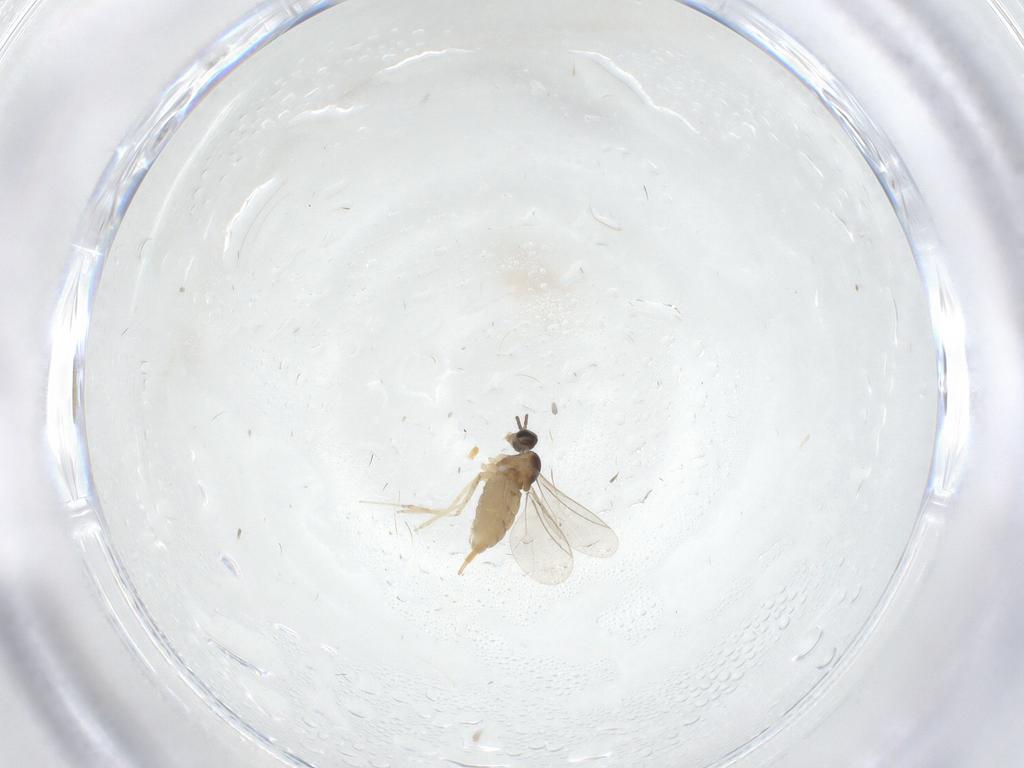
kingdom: Animalia
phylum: Arthropoda
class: Insecta
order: Diptera
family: Cecidomyiidae
